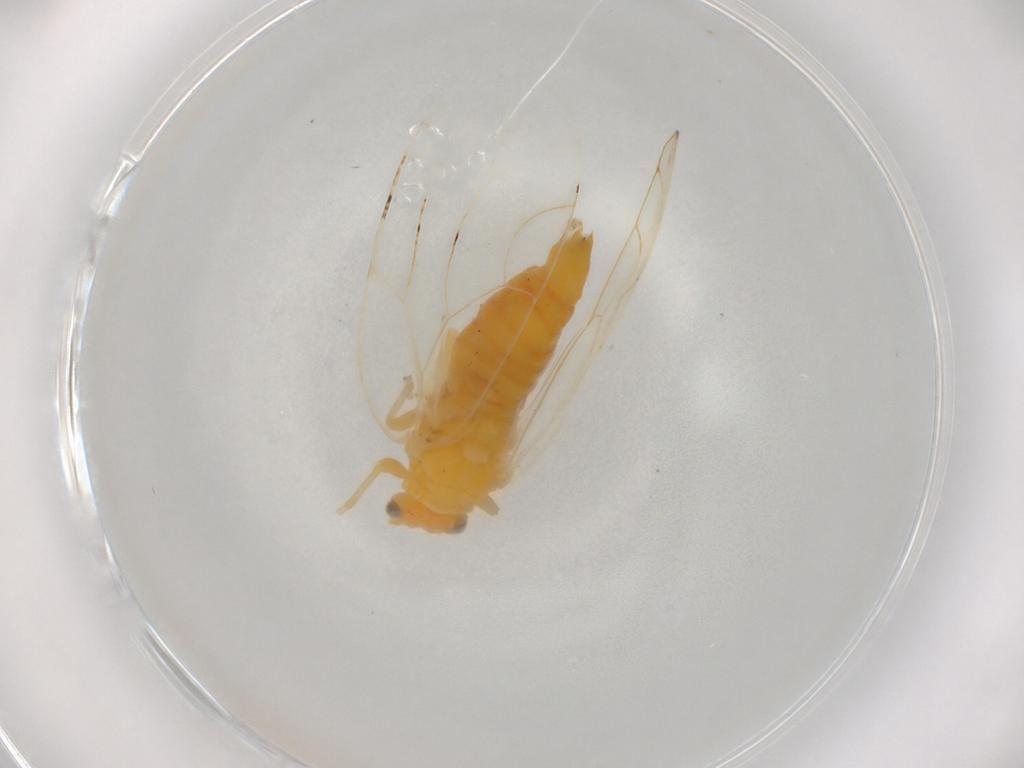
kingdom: Animalia
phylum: Arthropoda
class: Insecta
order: Hemiptera
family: Aphalaridae
